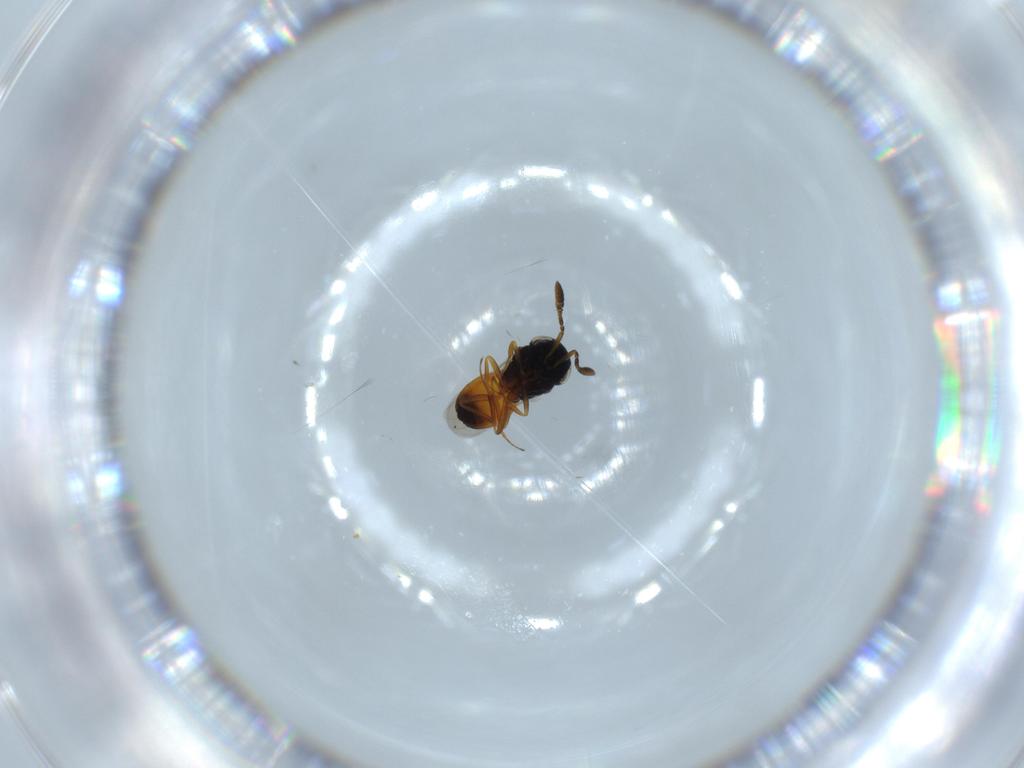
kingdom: Animalia
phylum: Arthropoda
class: Insecta
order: Hymenoptera
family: Scelionidae
